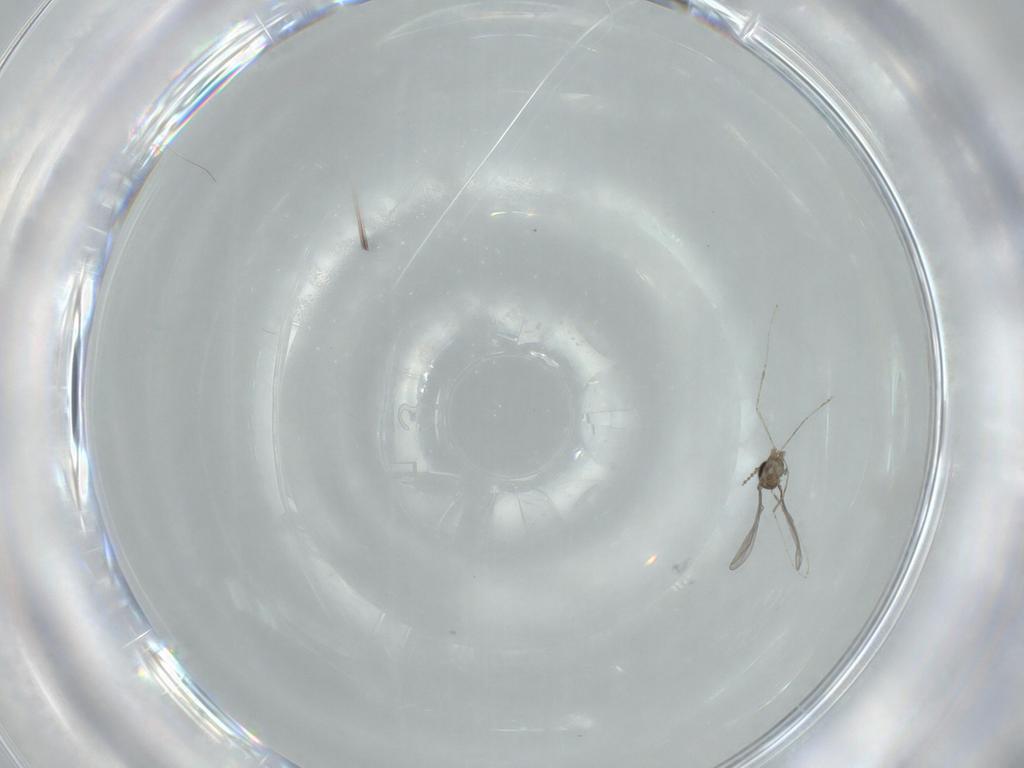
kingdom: Animalia
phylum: Arthropoda
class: Insecta
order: Diptera
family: Cecidomyiidae
